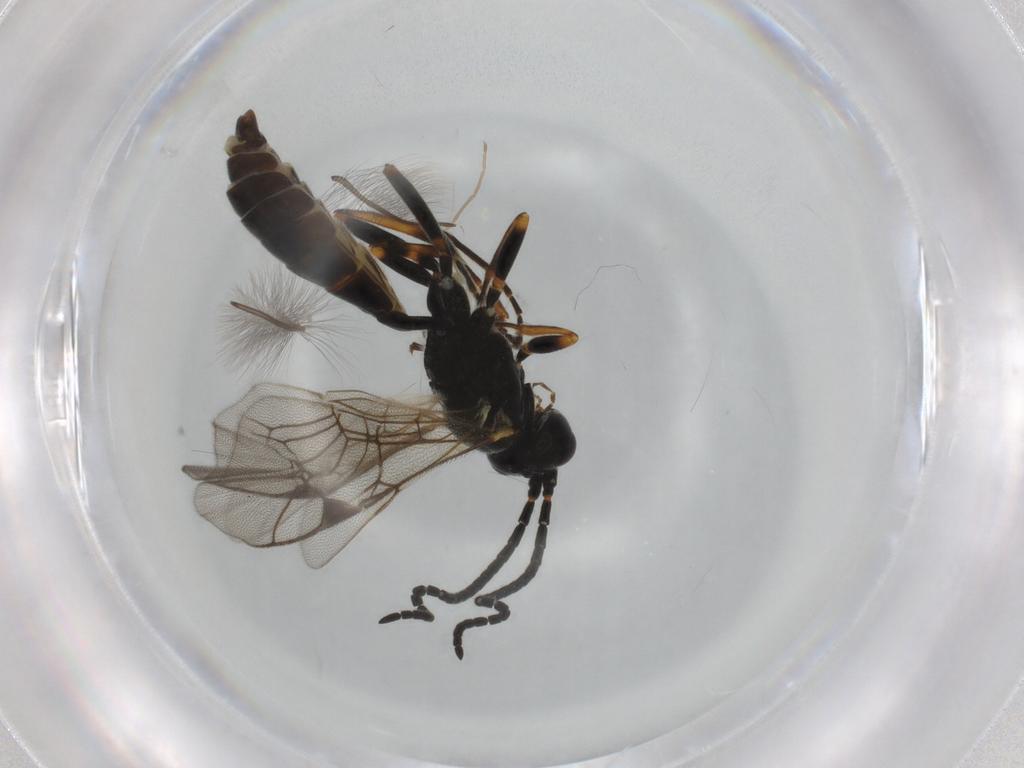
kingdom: Animalia
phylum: Arthropoda
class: Insecta
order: Hymenoptera
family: Ichneumonidae
